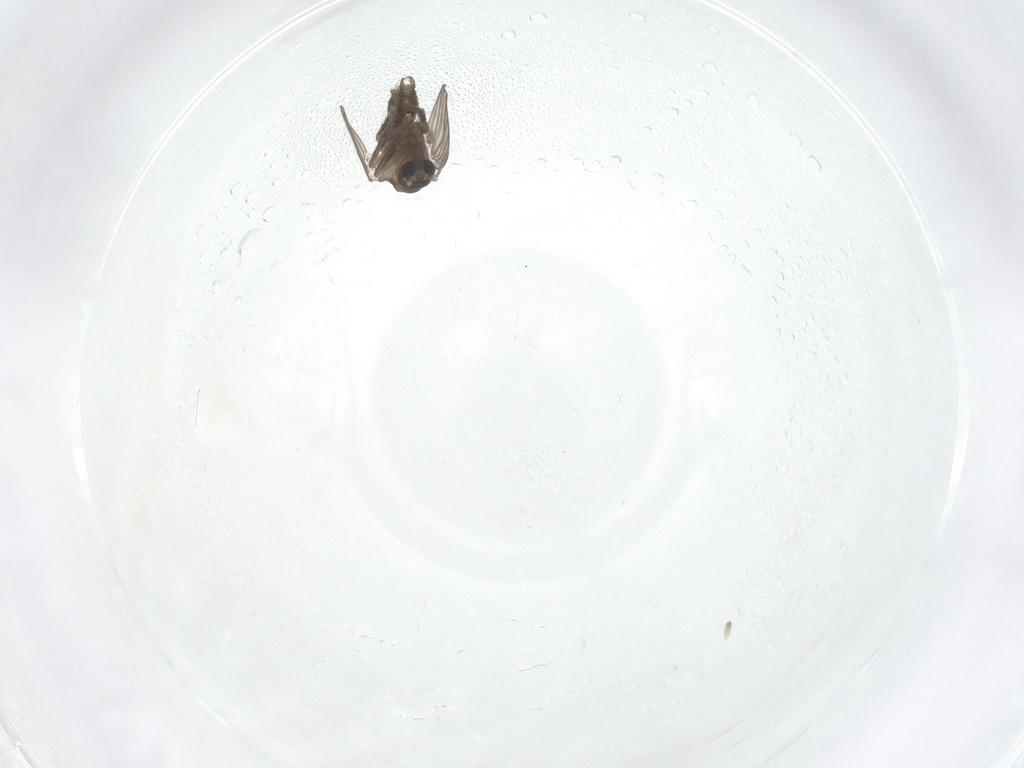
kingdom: Animalia
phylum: Arthropoda
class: Insecta
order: Diptera
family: Psychodidae
